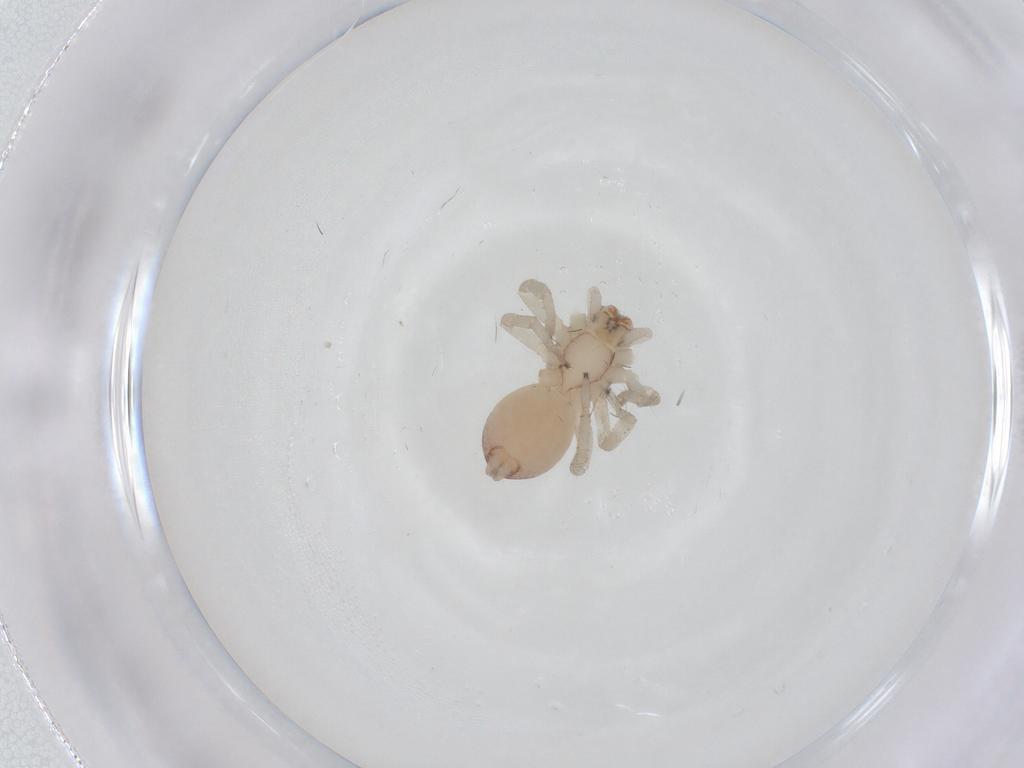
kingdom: Animalia
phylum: Arthropoda
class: Arachnida
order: Araneae
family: Clubionidae
